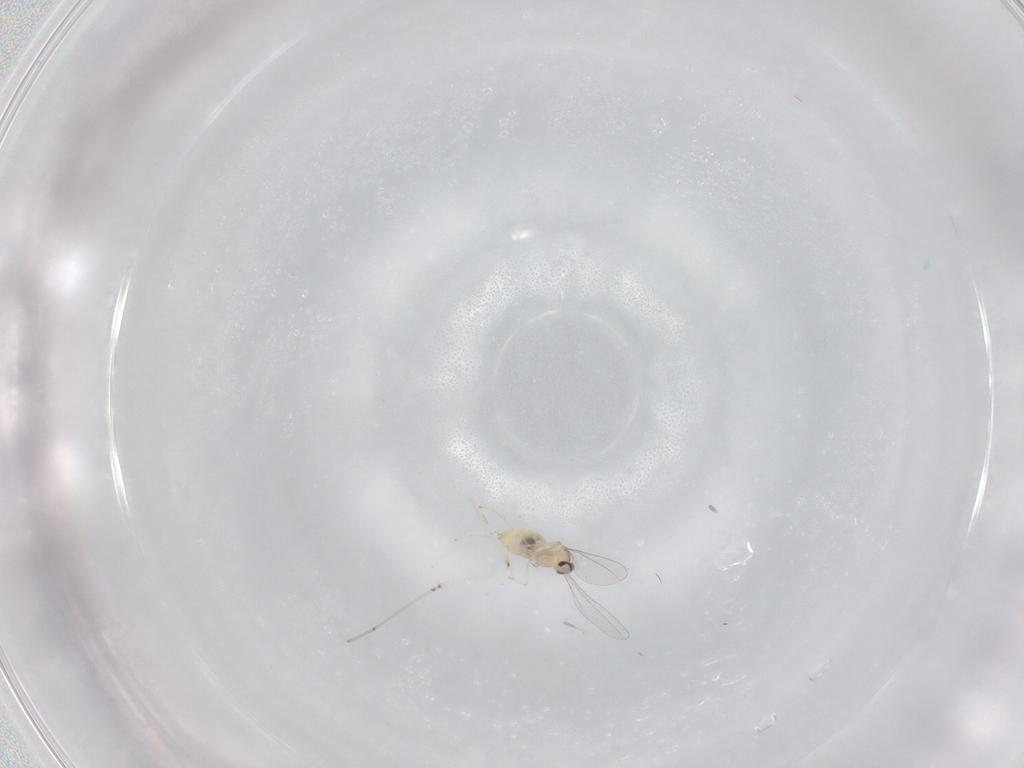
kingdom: Animalia
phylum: Arthropoda
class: Insecta
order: Diptera
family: Cecidomyiidae
